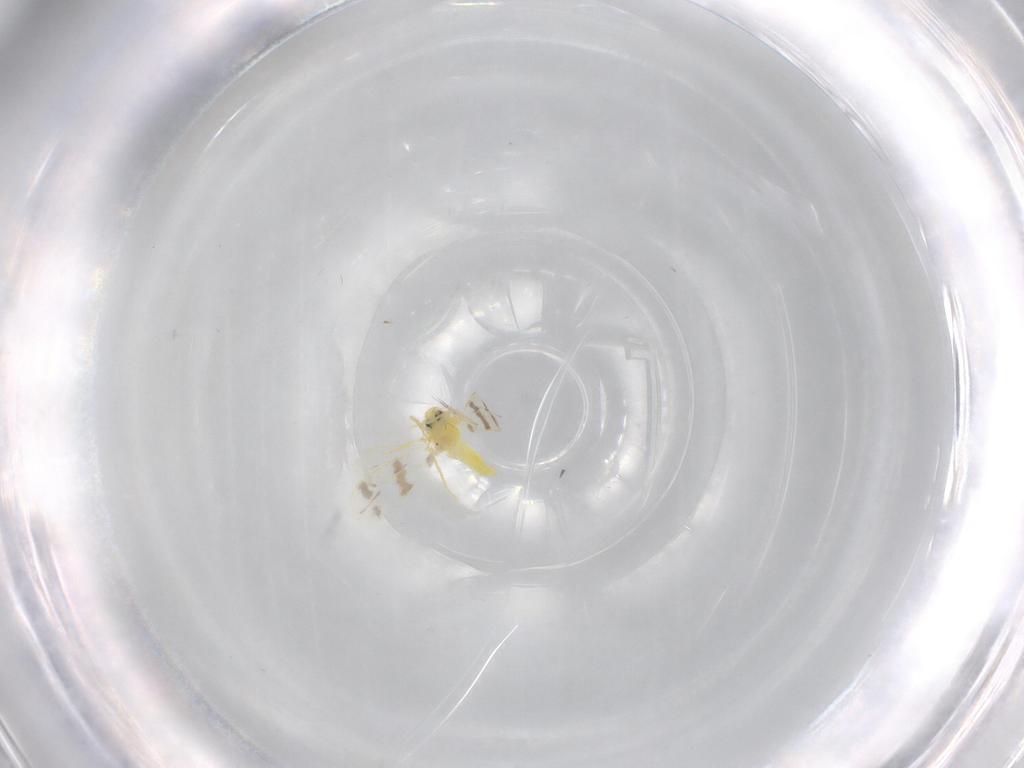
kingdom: Animalia
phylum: Arthropoda
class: Insecta
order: Hemiptera
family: Aleyrodidae
